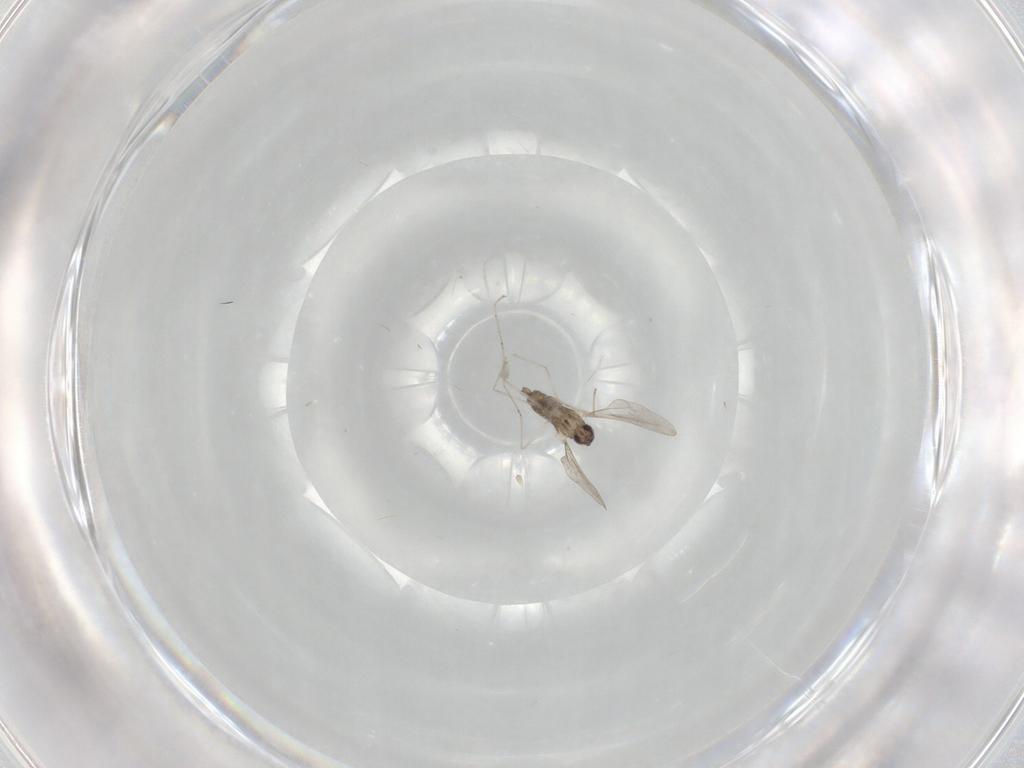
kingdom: Animalia
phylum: Arthropoda
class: Insecta
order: Diptera
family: Cecidomyiidae
